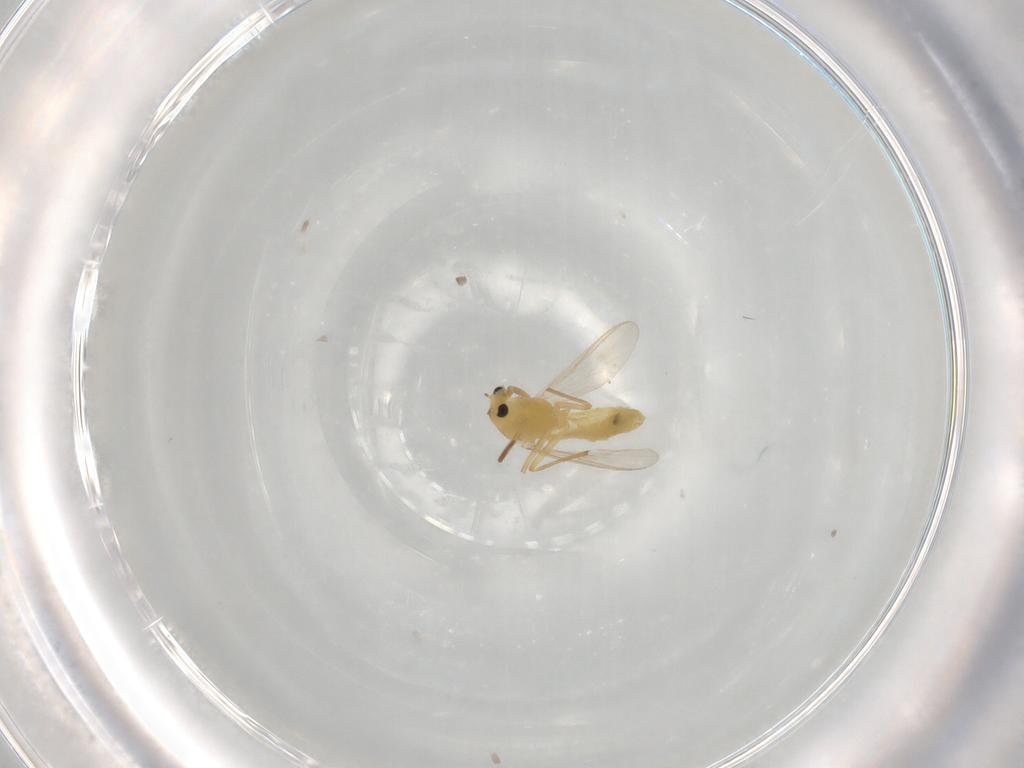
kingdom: Animalia
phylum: Arthropoda
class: Insecta
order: Diptera
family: Chironomidae
